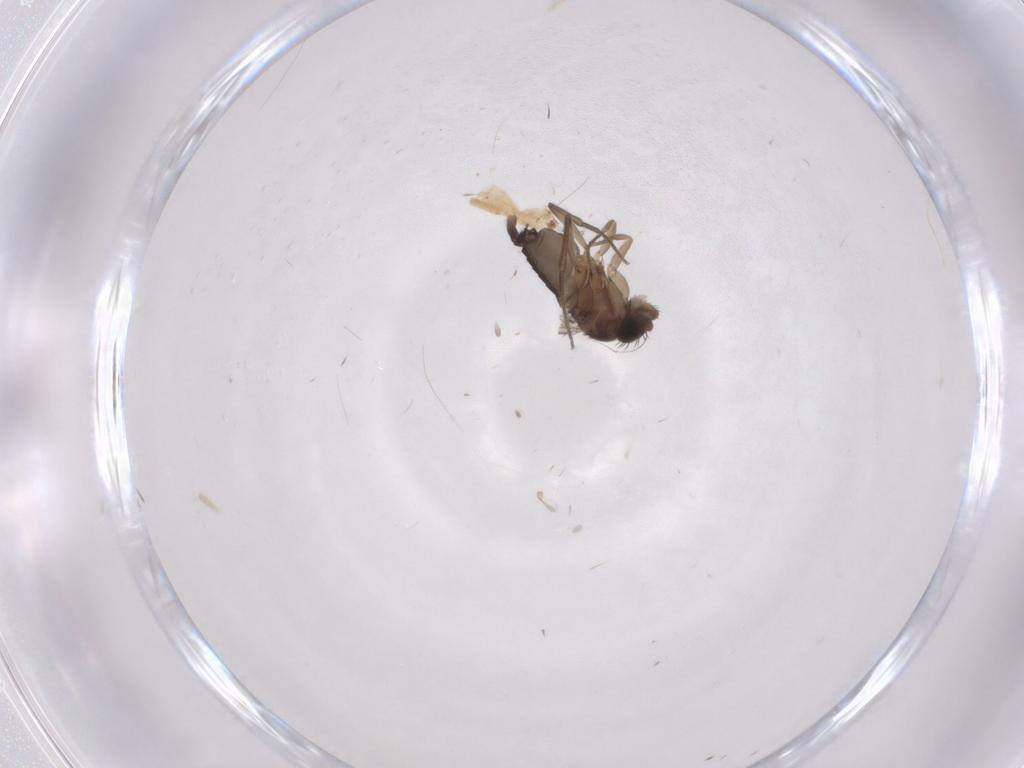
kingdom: Animalia
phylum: Arthropoda
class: Insecta
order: Diptera
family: Phoridae
